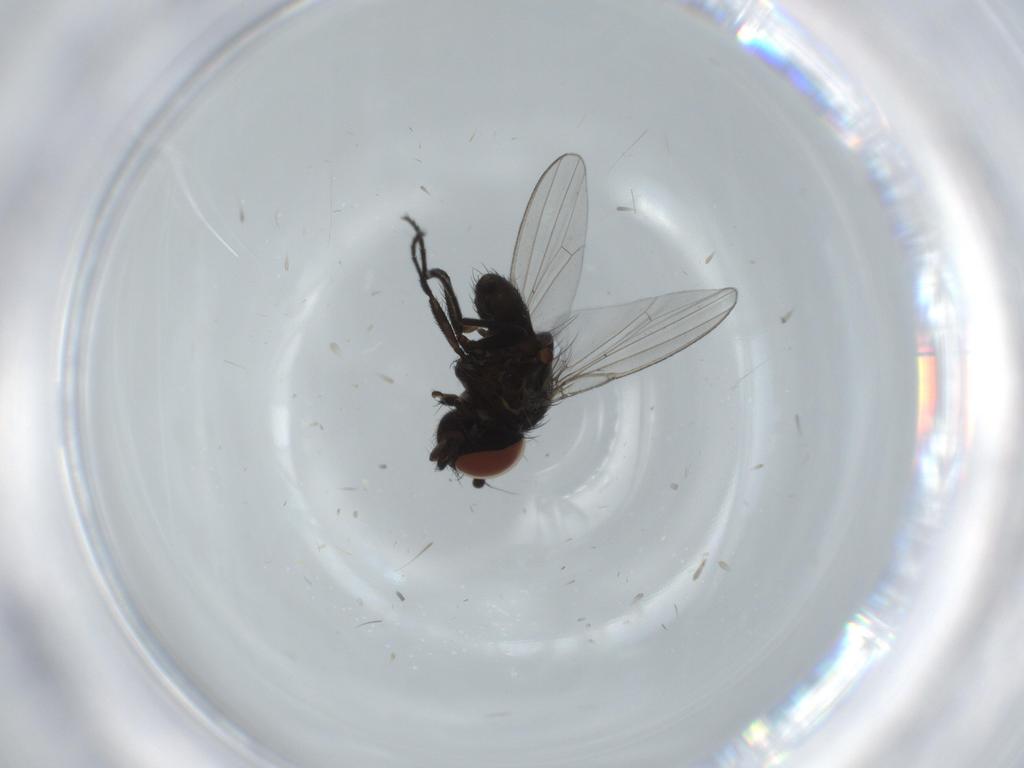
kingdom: Animalia
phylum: Arthropoda
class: Insecta
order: Diptera
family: Milichiidae
